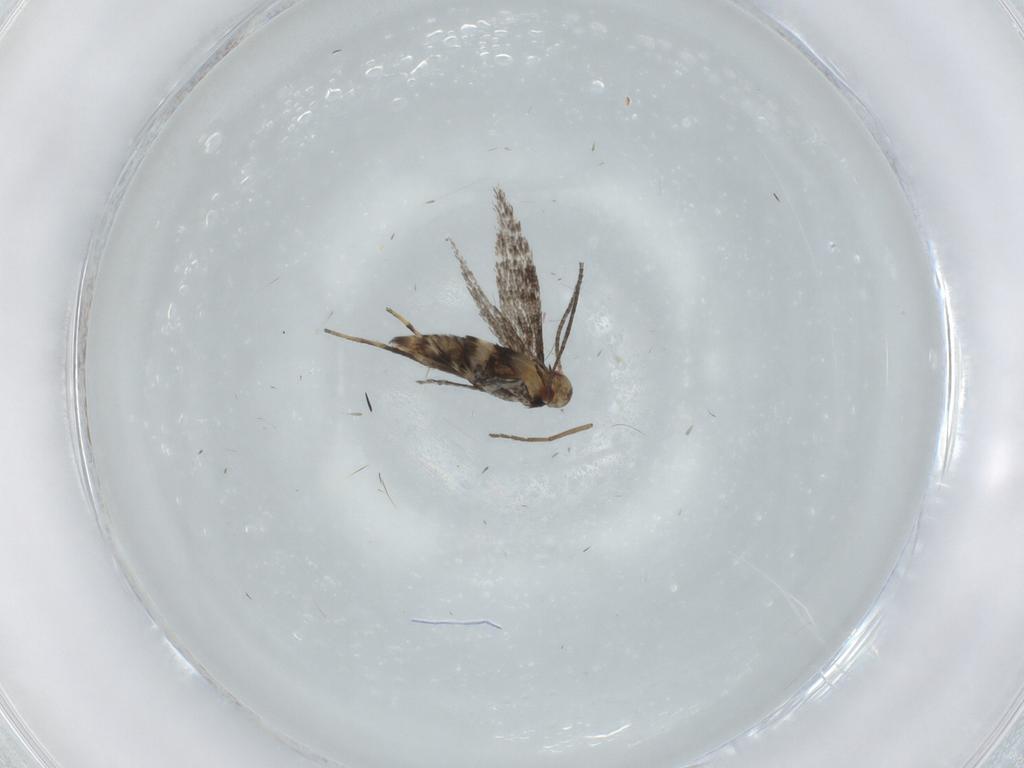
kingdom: Animalia
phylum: Arthropoda
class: Insecta
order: Lepidoptera
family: Gracillariidae
